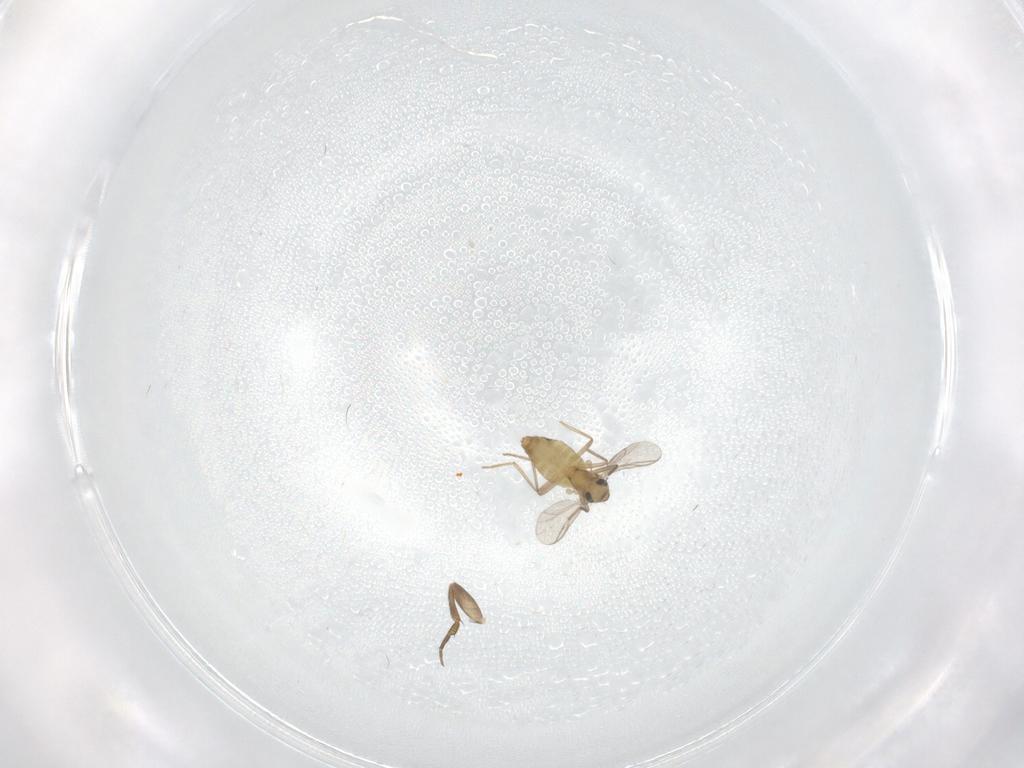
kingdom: Animalia
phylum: Arthropoda
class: Insecta
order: Diptera
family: Chironomidae
